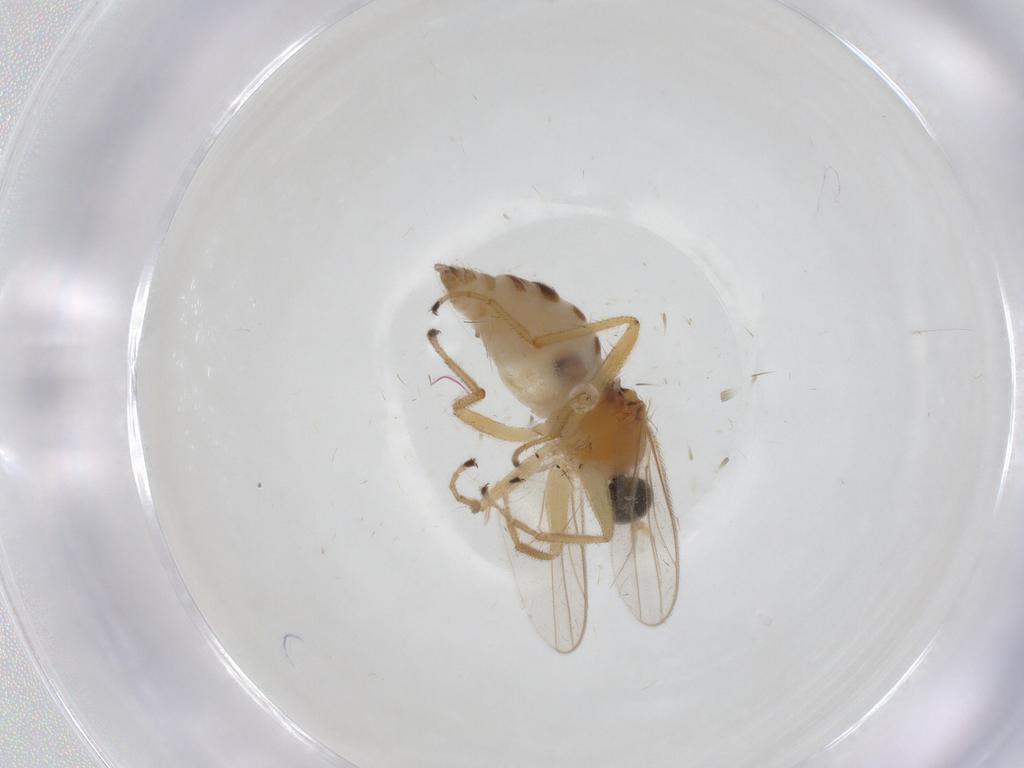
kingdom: Animalia
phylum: Arthropoda
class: Insecta
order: Diptera
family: Hybotidae
